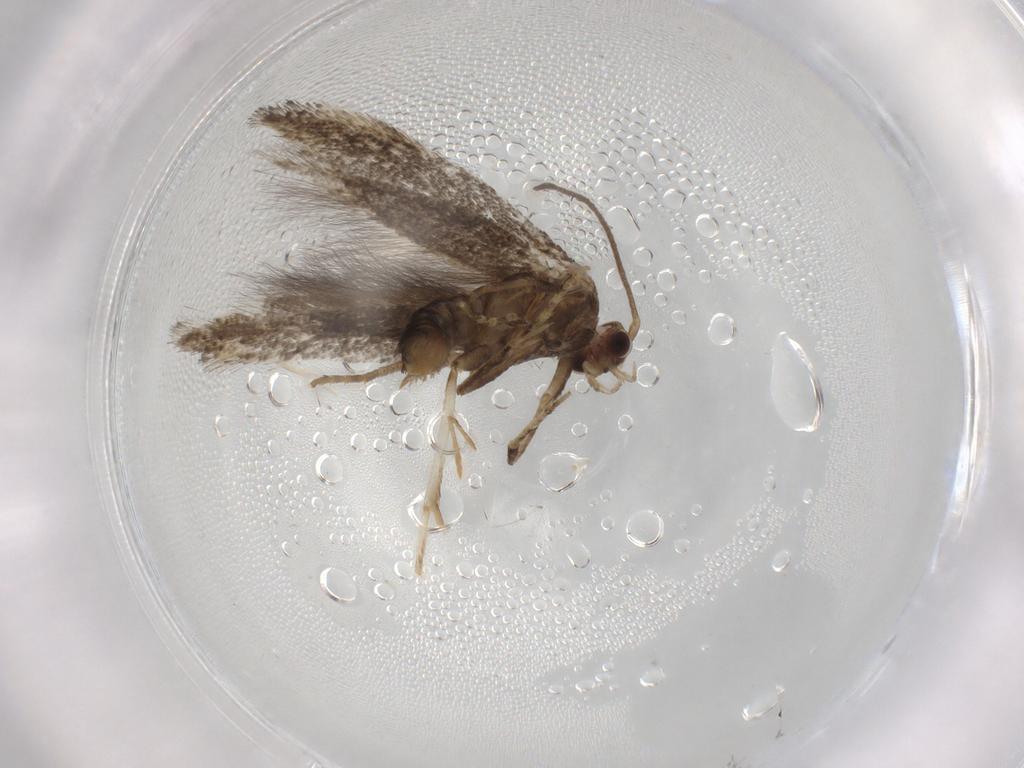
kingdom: Animalia
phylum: Arthropoda
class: Insecta
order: Lepidoptera
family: Elachistidae
